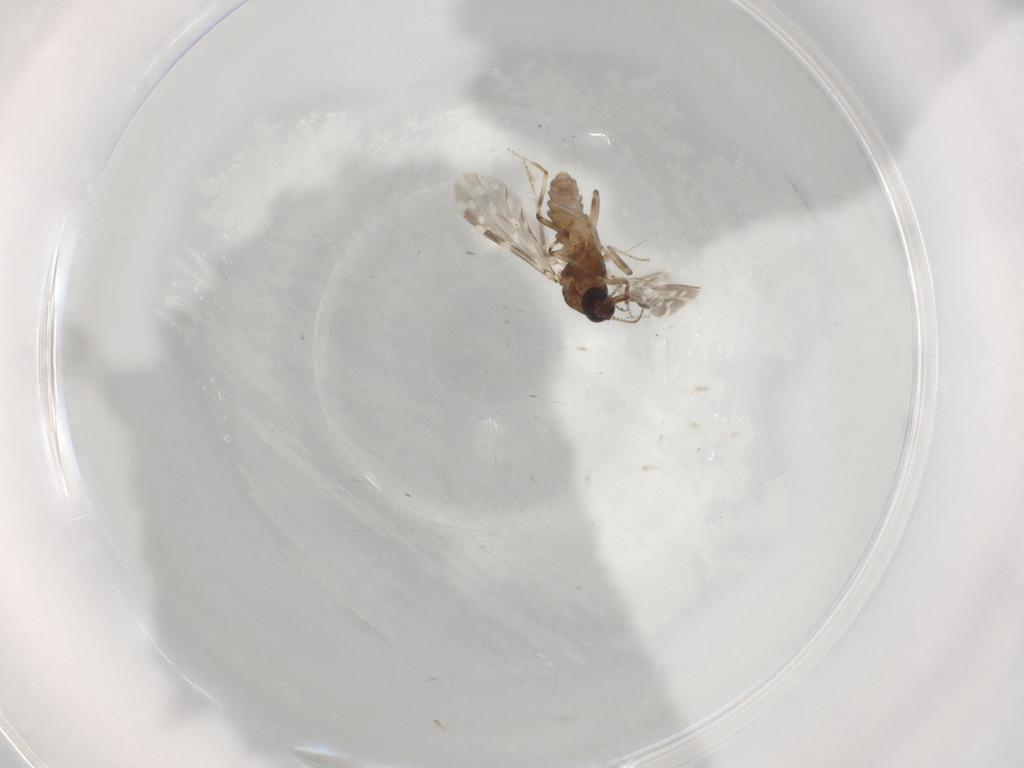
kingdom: Animalia
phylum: Arthropoda
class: Insecta
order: Diptera
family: Ceratopogonidae
